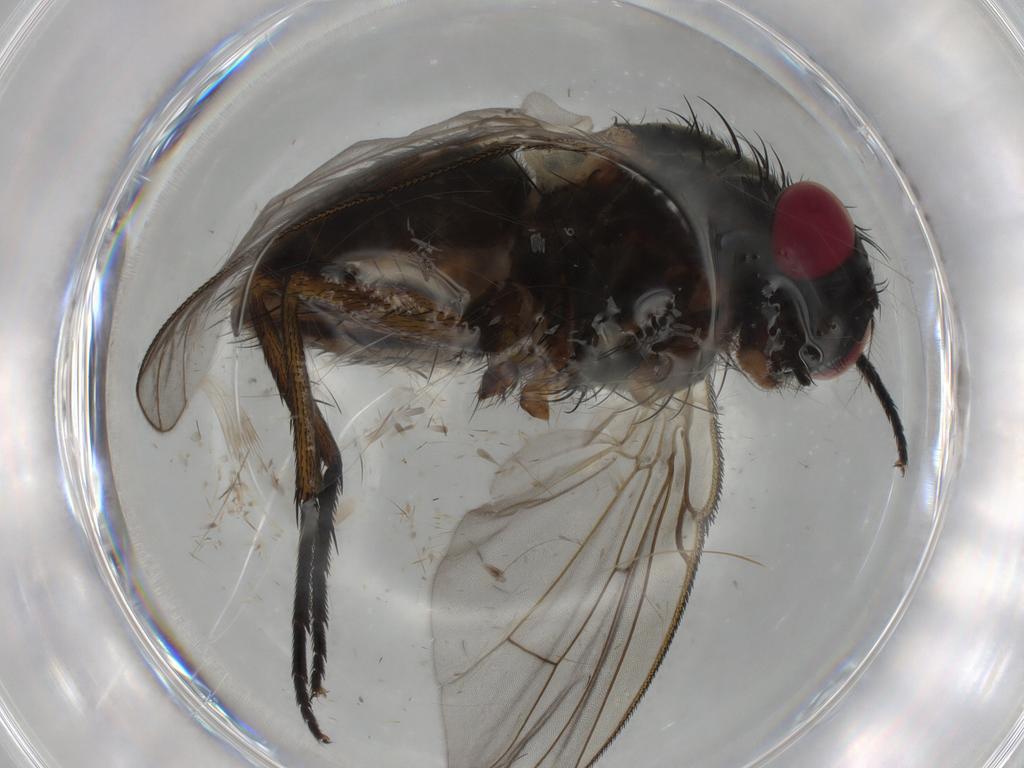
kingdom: Animalia
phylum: Arthropoda
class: Insecta
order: Diptera
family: Muscidae
